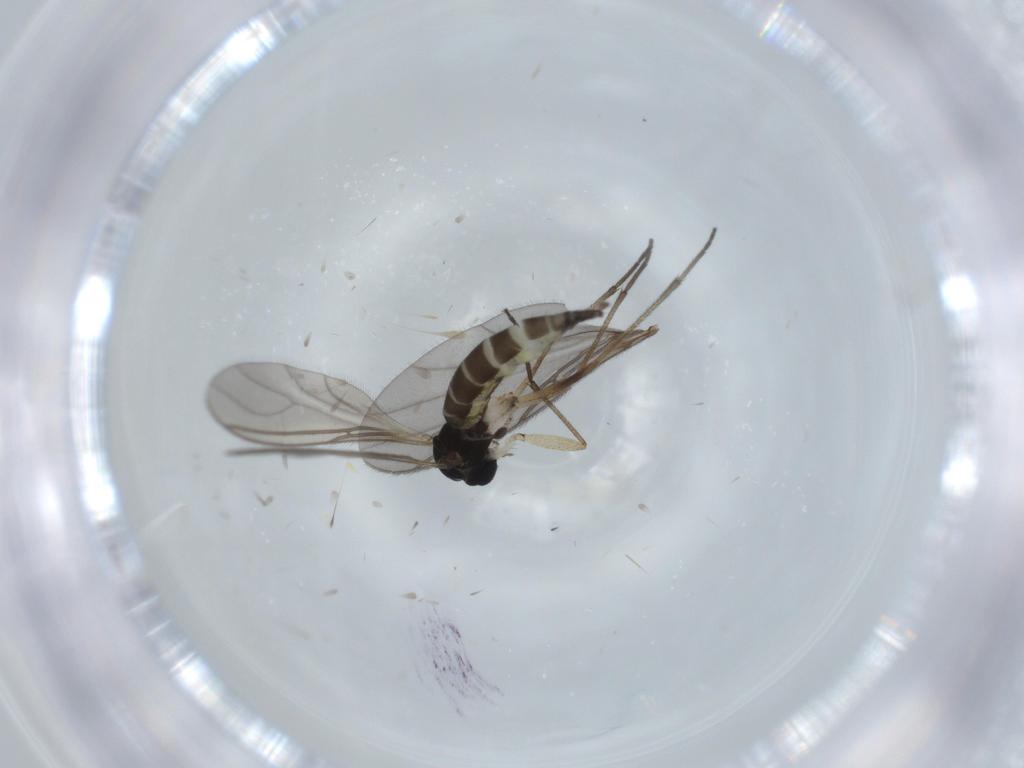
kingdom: Animalia
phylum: Arthropoda
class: Insecta
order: Diptera
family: Sciaridae
